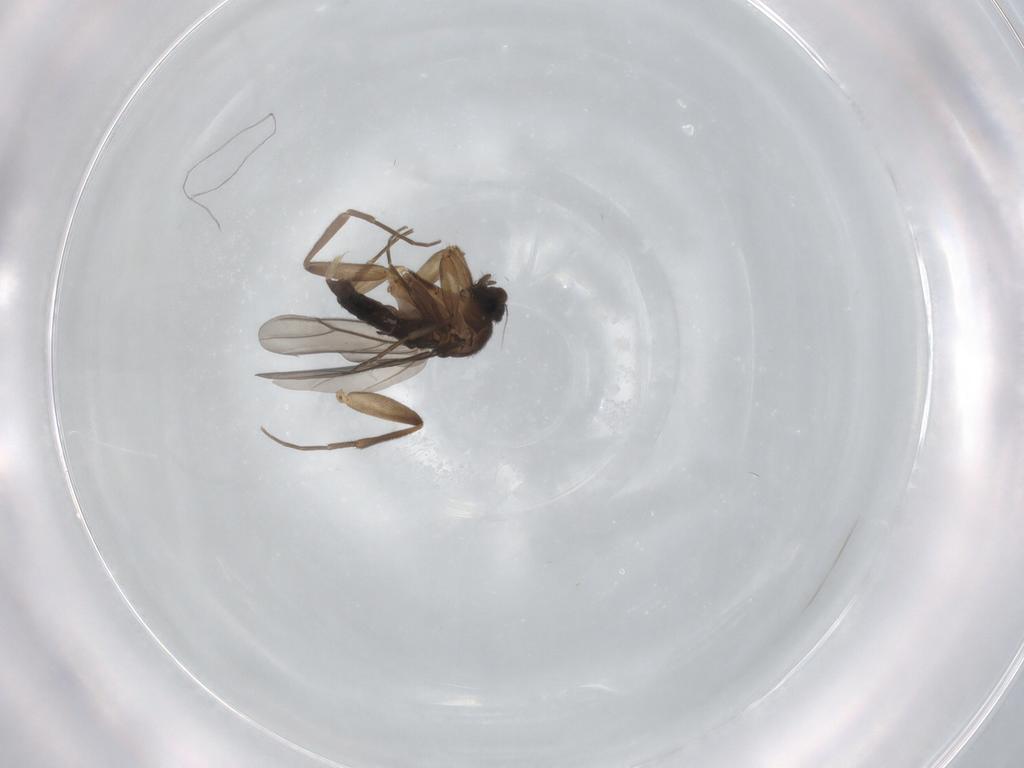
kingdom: Animalia
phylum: Arthropoda
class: Insecta
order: Diptera
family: Phoridae
